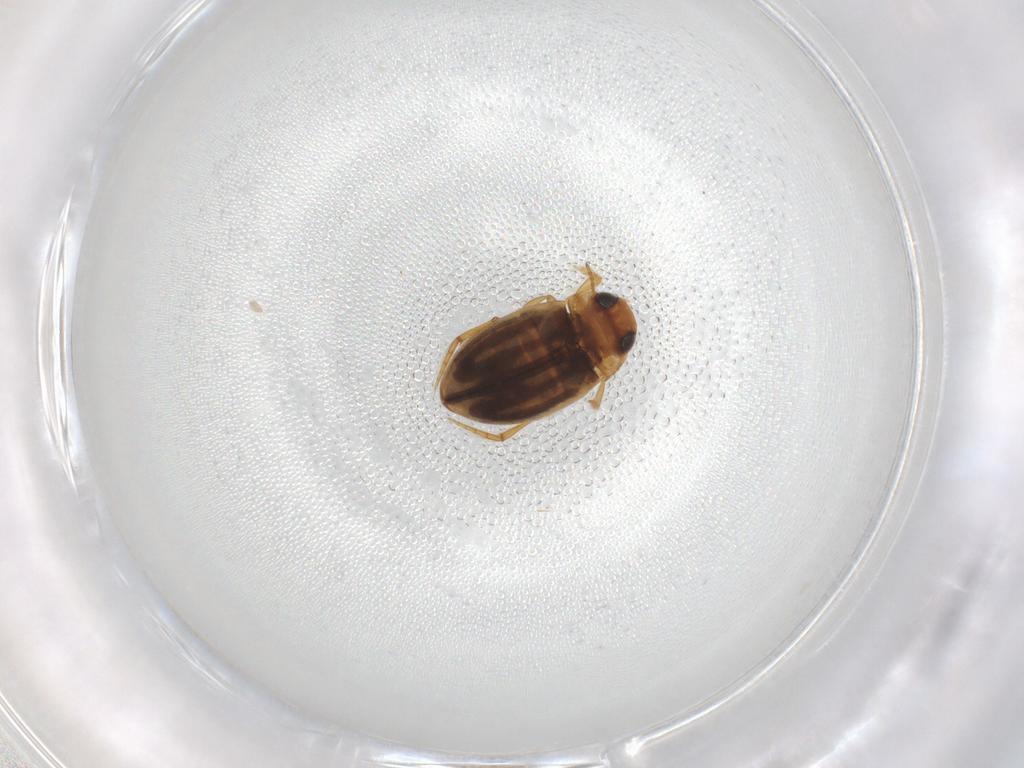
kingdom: Animalia
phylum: Arthropoda
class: Insecta
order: Coleoptera
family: Dytiscidae
